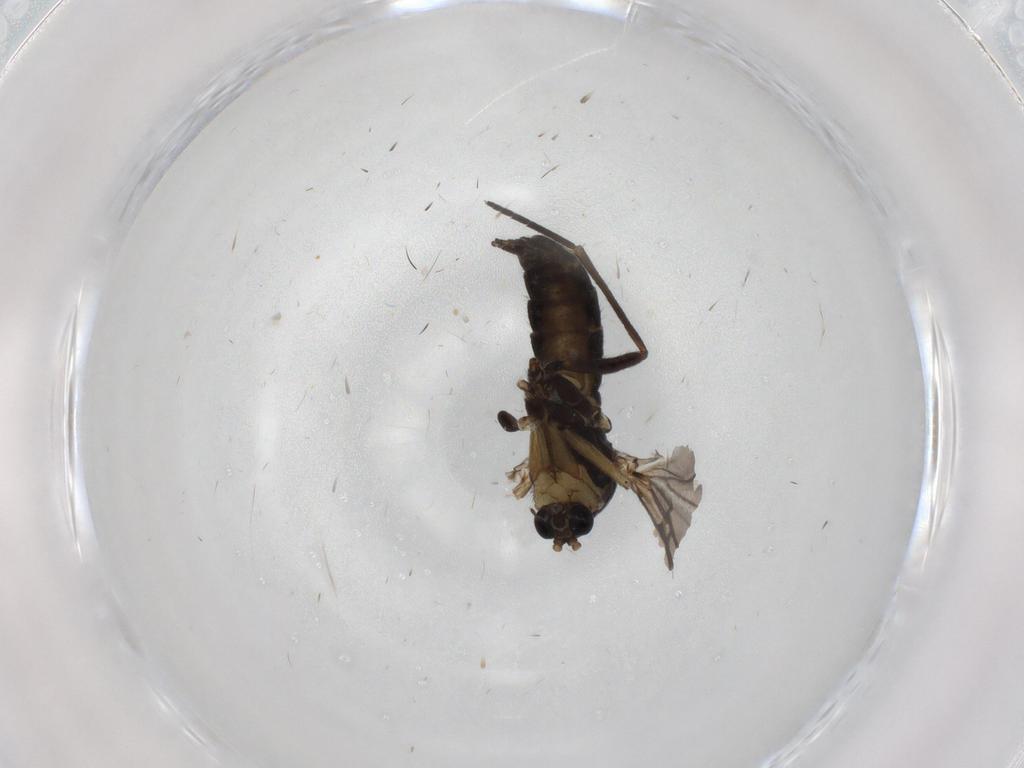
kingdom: Animalia
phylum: Arthropoda
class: Insecta
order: Diptera
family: Sciaridae
